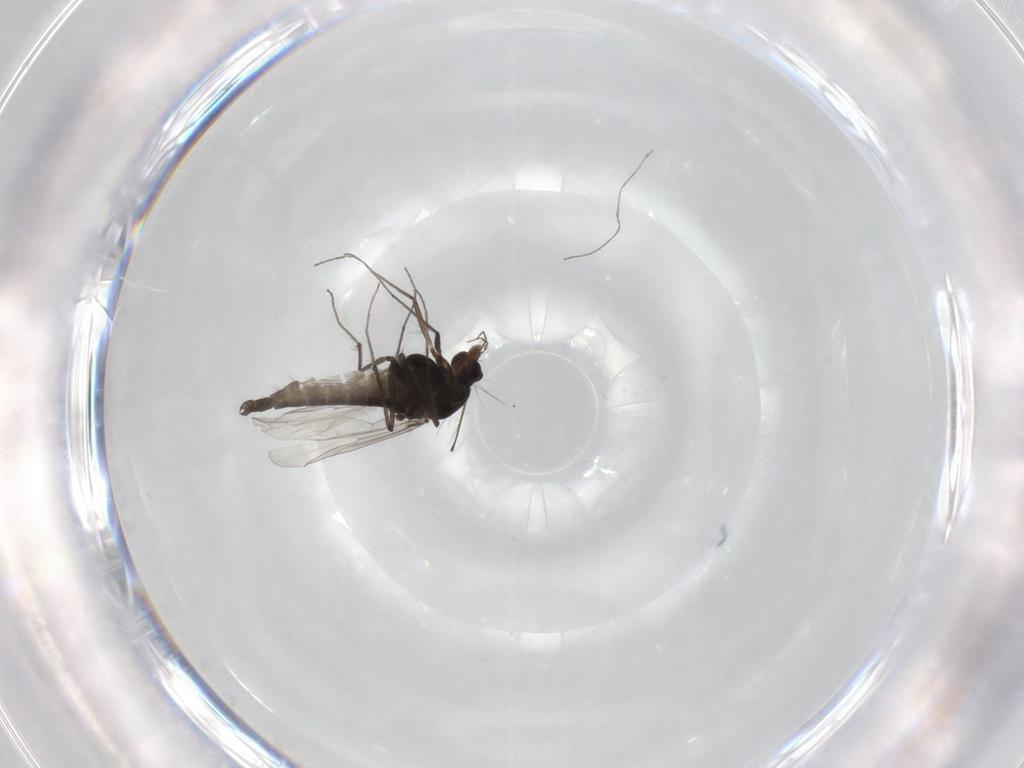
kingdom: Animalia
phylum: Arthropoda
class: Insecta
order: Diptera
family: Chironomidae
